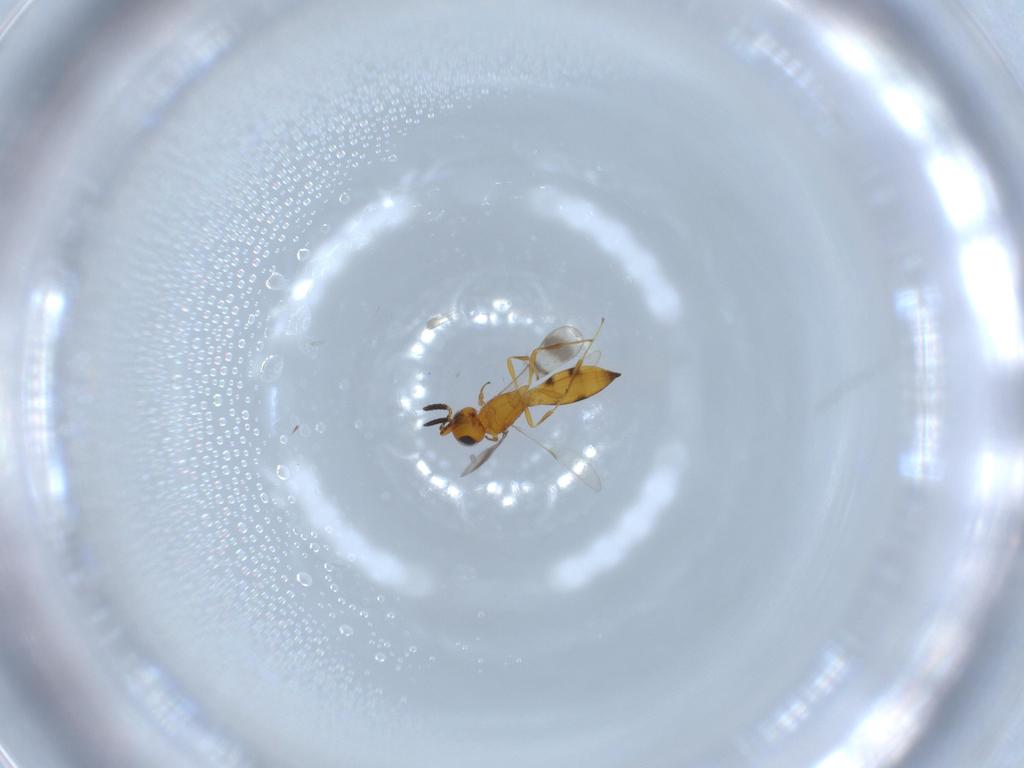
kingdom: Animalia
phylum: Arthropoda
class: Insecta
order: Hymenoptera
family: Scelionidae
